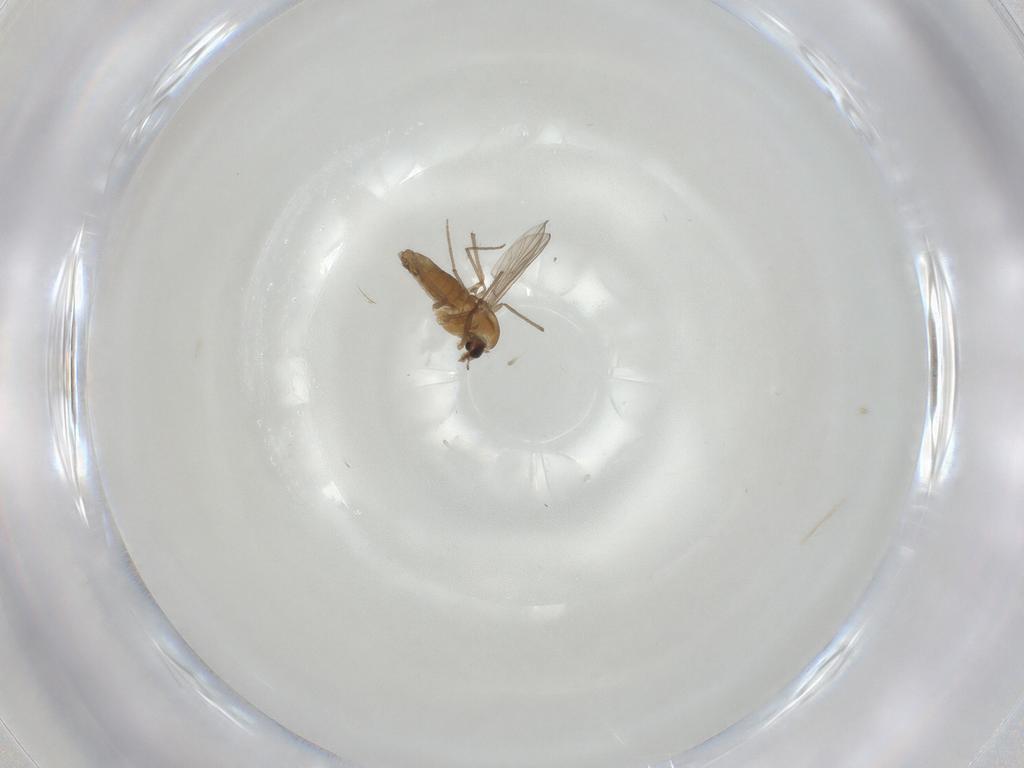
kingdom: Animalia
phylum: Arthropoda
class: Insecta
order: Diptera
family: Chironomidae
